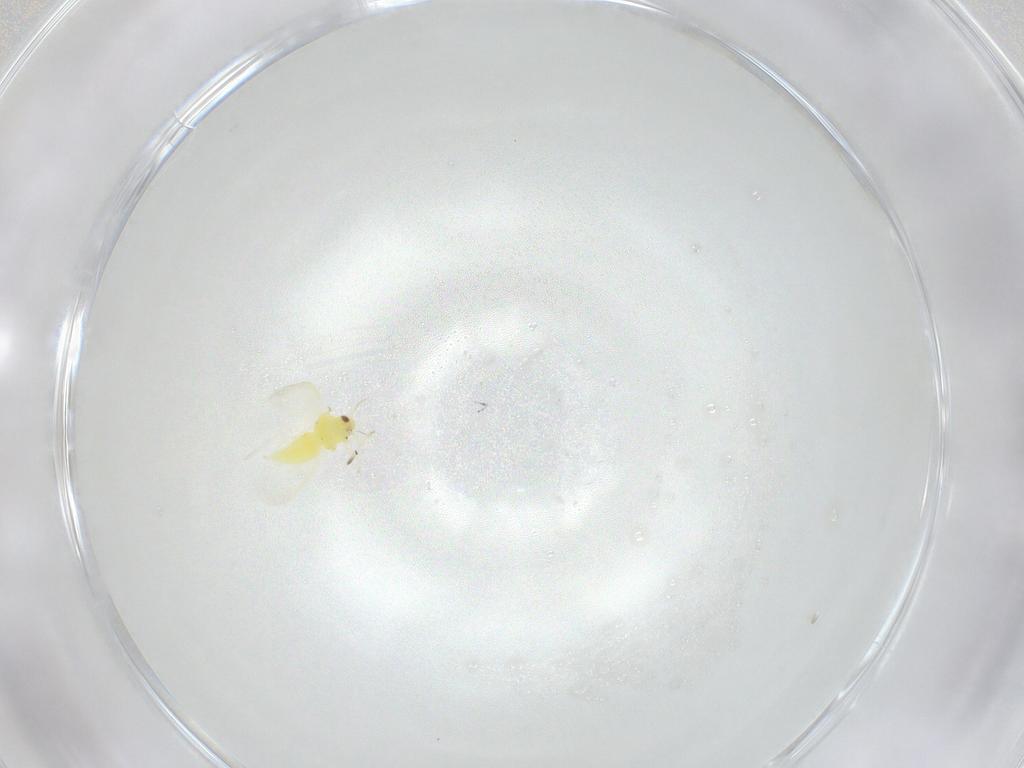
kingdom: Animalia
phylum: Arthropoda
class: Insecta
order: Hemiptera
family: Aleyrodidae
